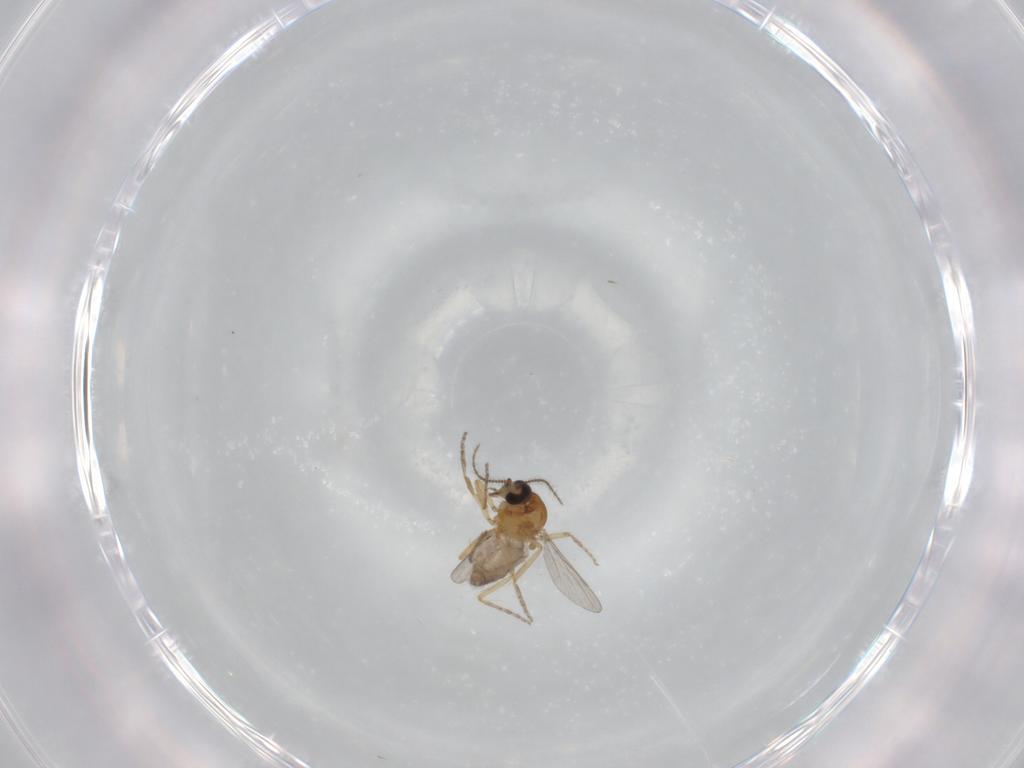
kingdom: Animalia
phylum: Arthropoda
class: Insecta
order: Diptera
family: Ceratopogonidae
